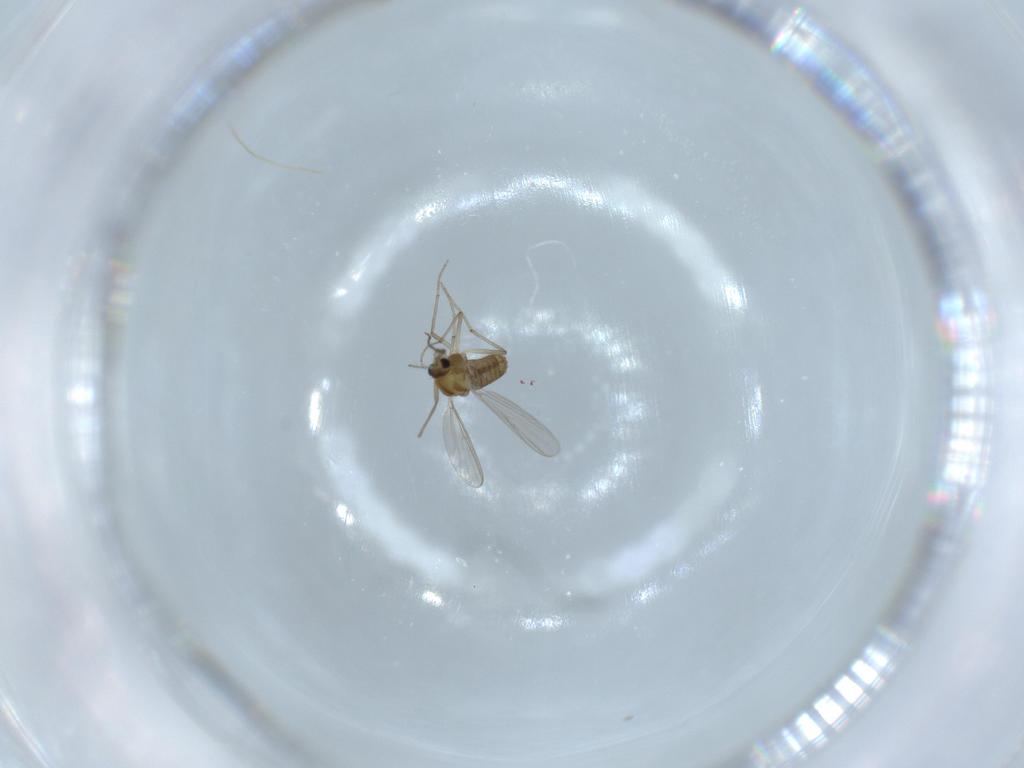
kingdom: Animalia
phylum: Arthropoda
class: Insecta
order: Diptera
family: Chironomidae
